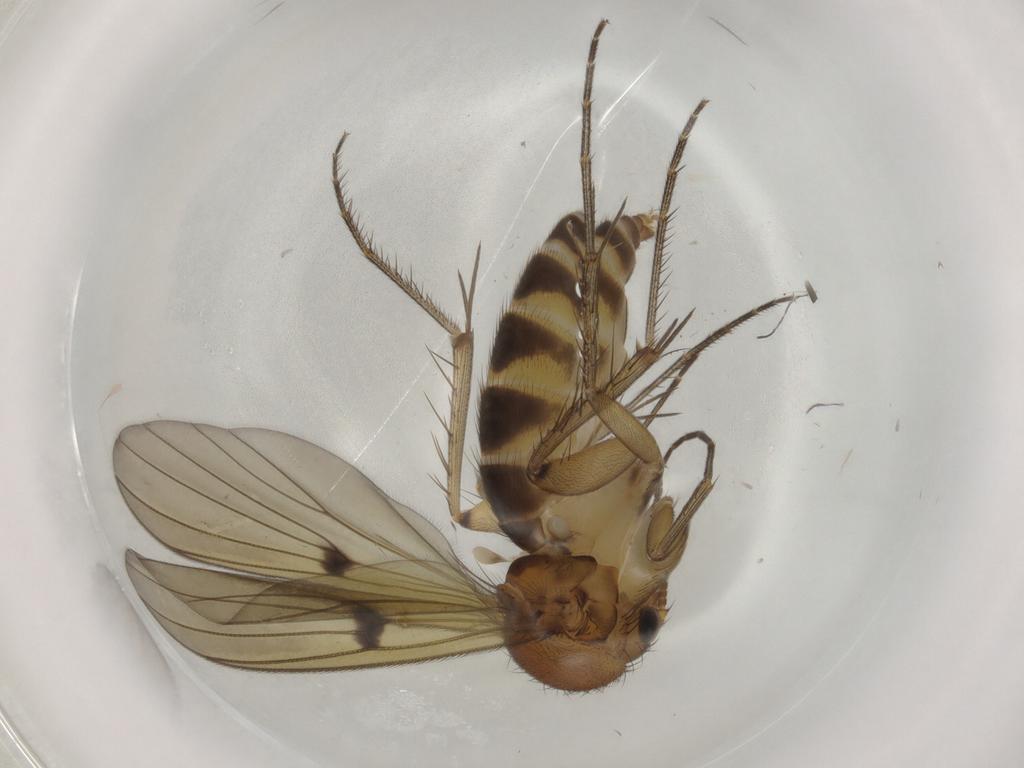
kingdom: Animalia
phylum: Arthropoda
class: Insecta
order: Diptera
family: Mycetophilidae
